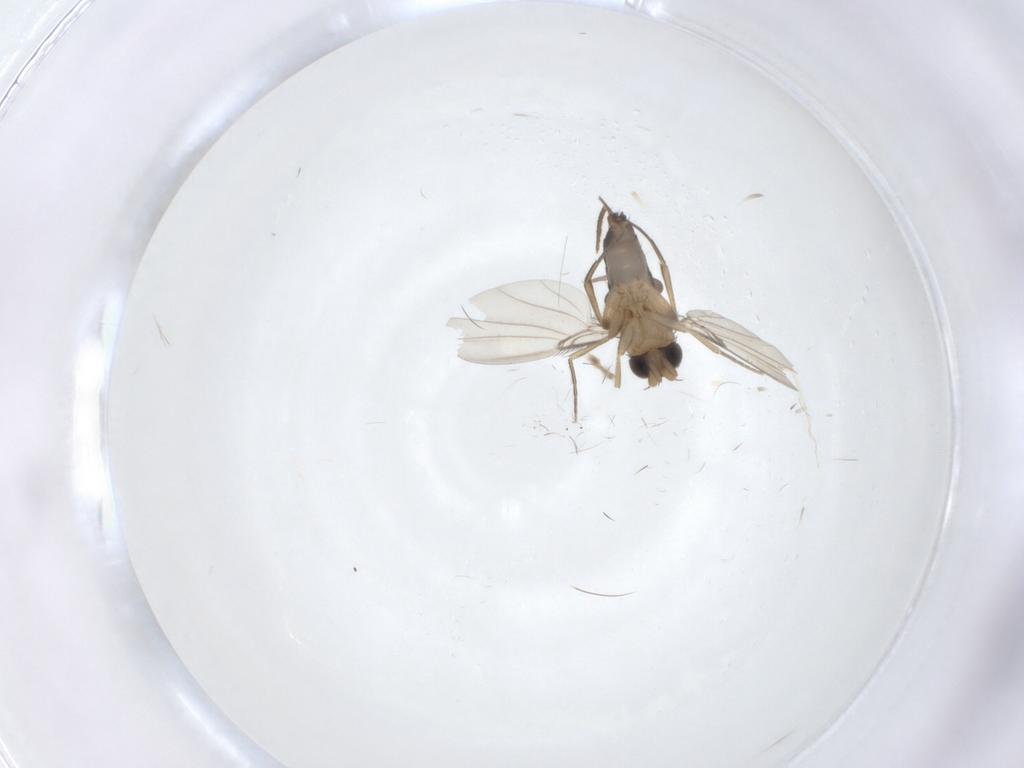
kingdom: Animalia
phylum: Arthropoda
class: Insecta
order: Diptera
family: Phoridae
